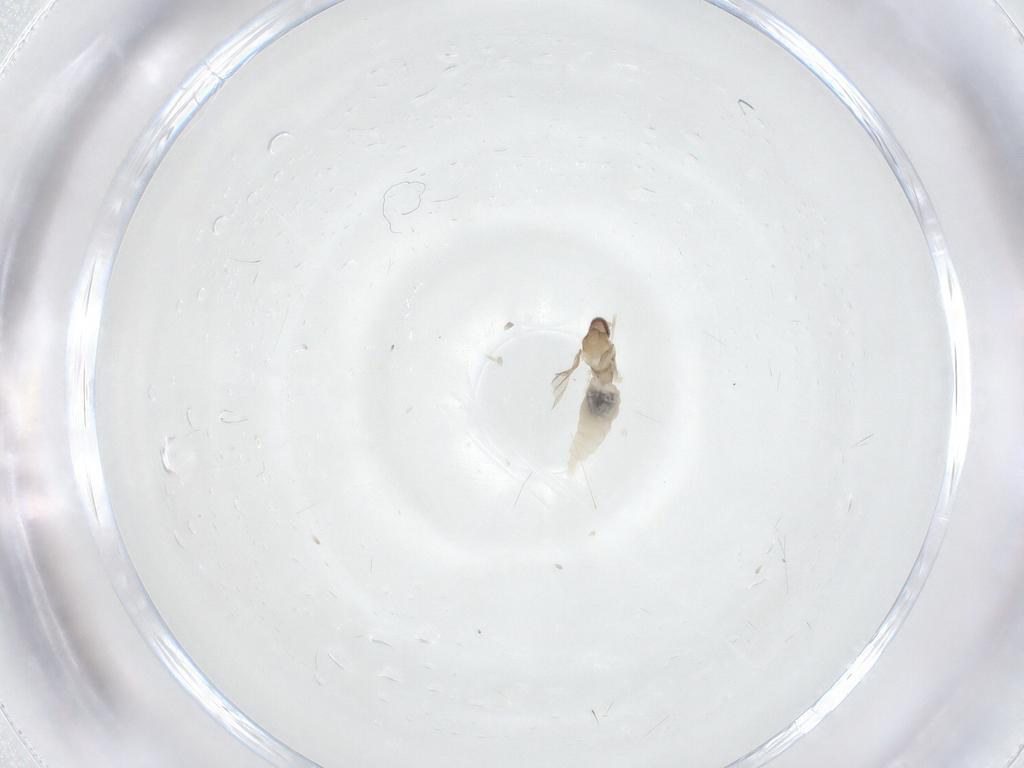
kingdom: Animalia
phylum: Arthropoda
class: Insecta
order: Diptera
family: Cecidomyiidae
